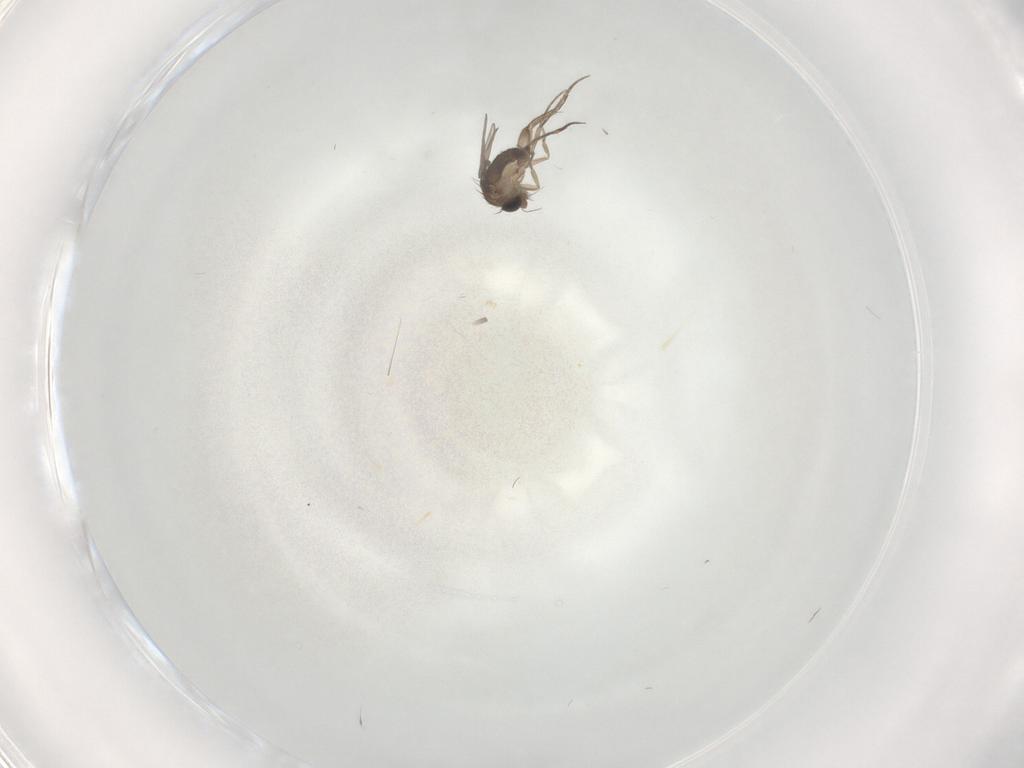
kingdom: Animalia
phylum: Arthropoda
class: Insecta
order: Diptera
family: Phoridae
